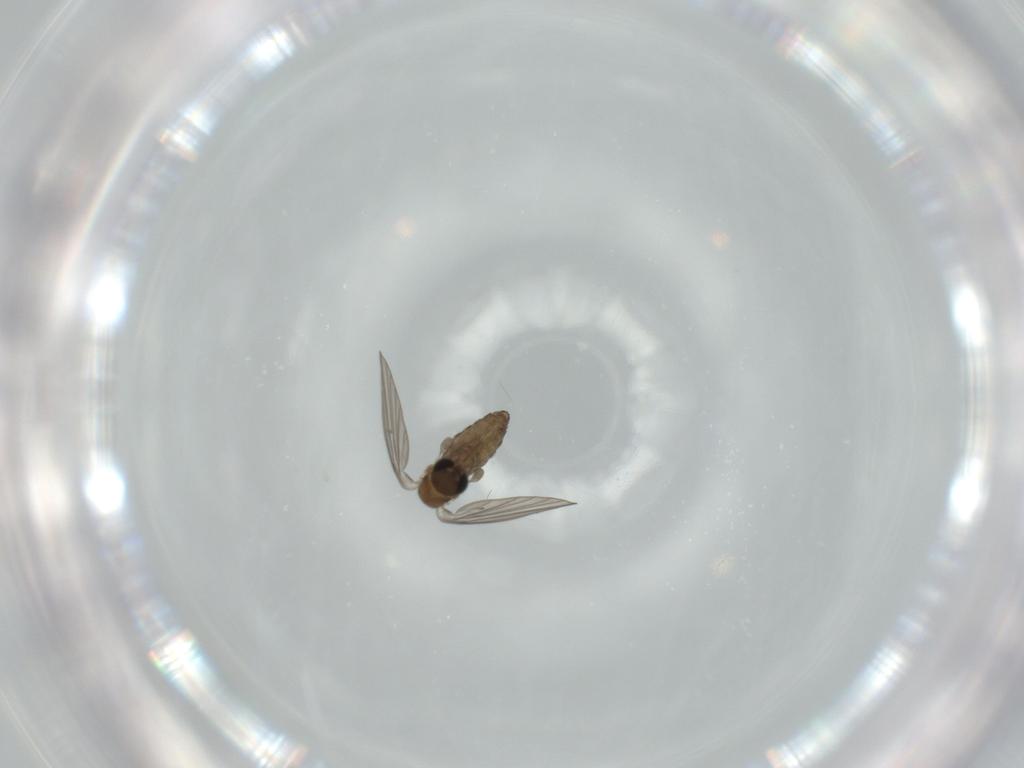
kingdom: Animalia
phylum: Arthropoda
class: Insecta
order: Diptera
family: Psychodidae
